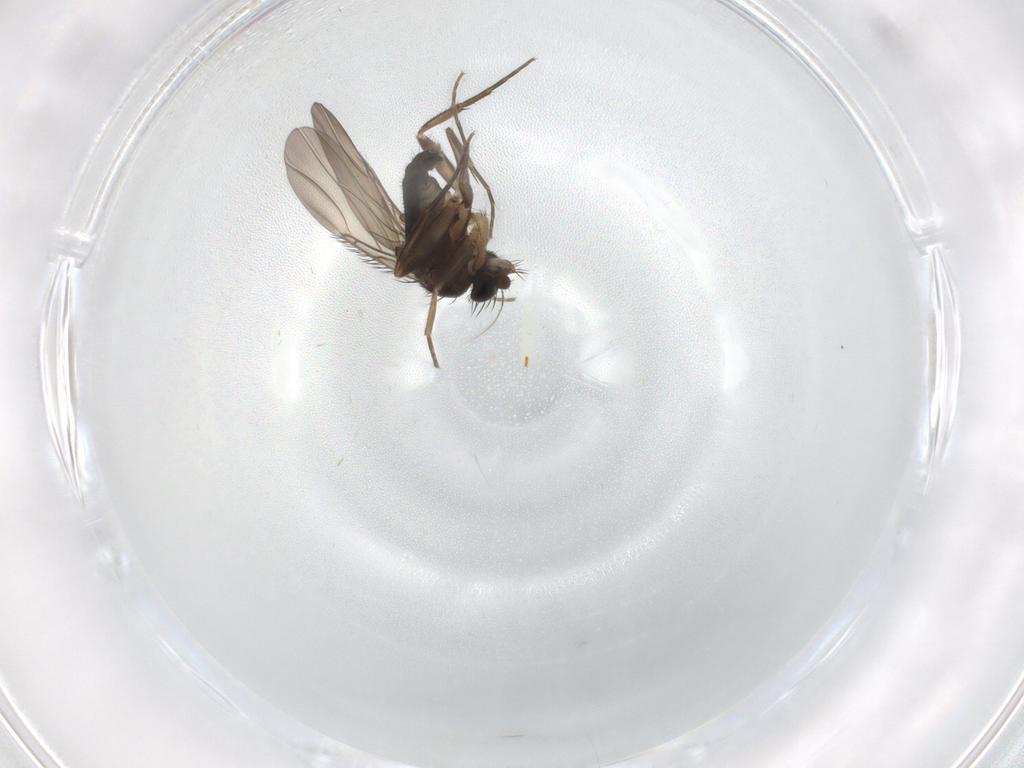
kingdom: Animalia
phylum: Arthropoda
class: Insecta
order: Diptera
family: Phoridae
